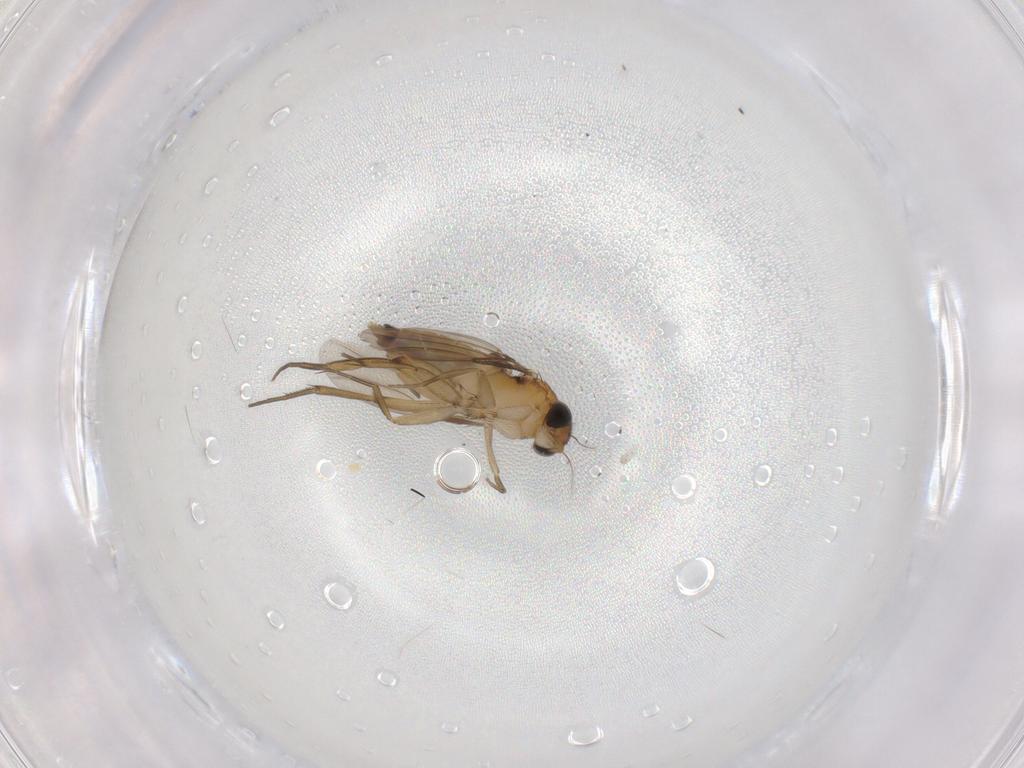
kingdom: Animalia
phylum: Arthropoda
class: Insecta
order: Diptera
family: Phoridae
